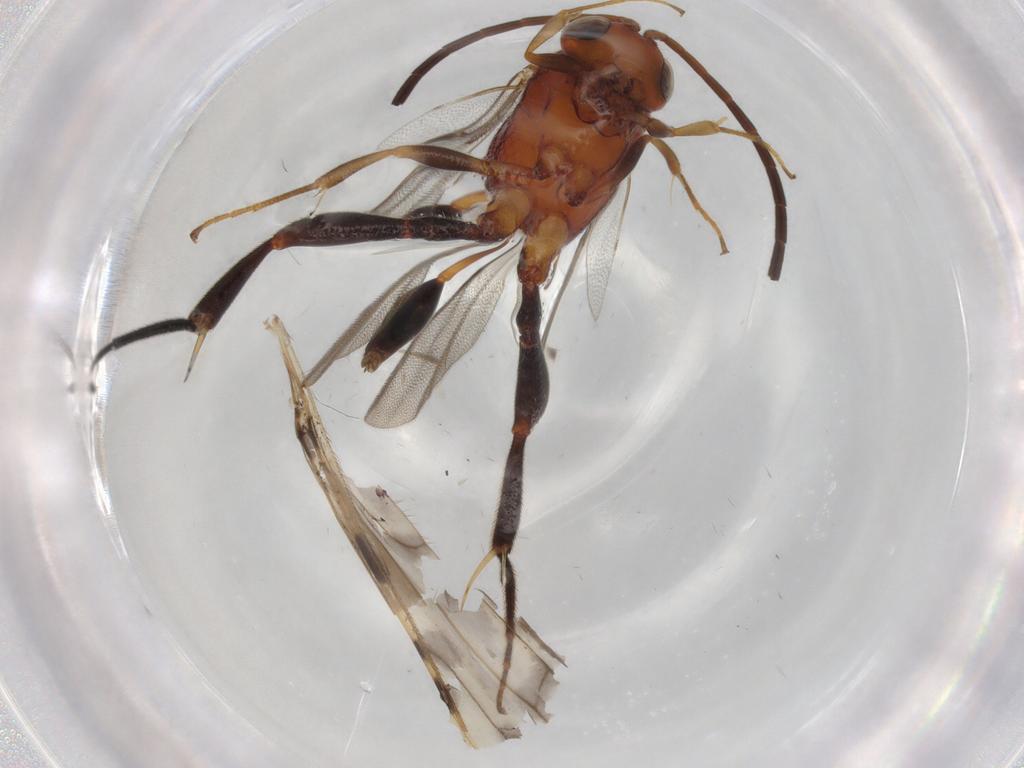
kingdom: Animalia
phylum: Arthropoda
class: Insecta
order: Hymenoptera
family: Evaniidae
